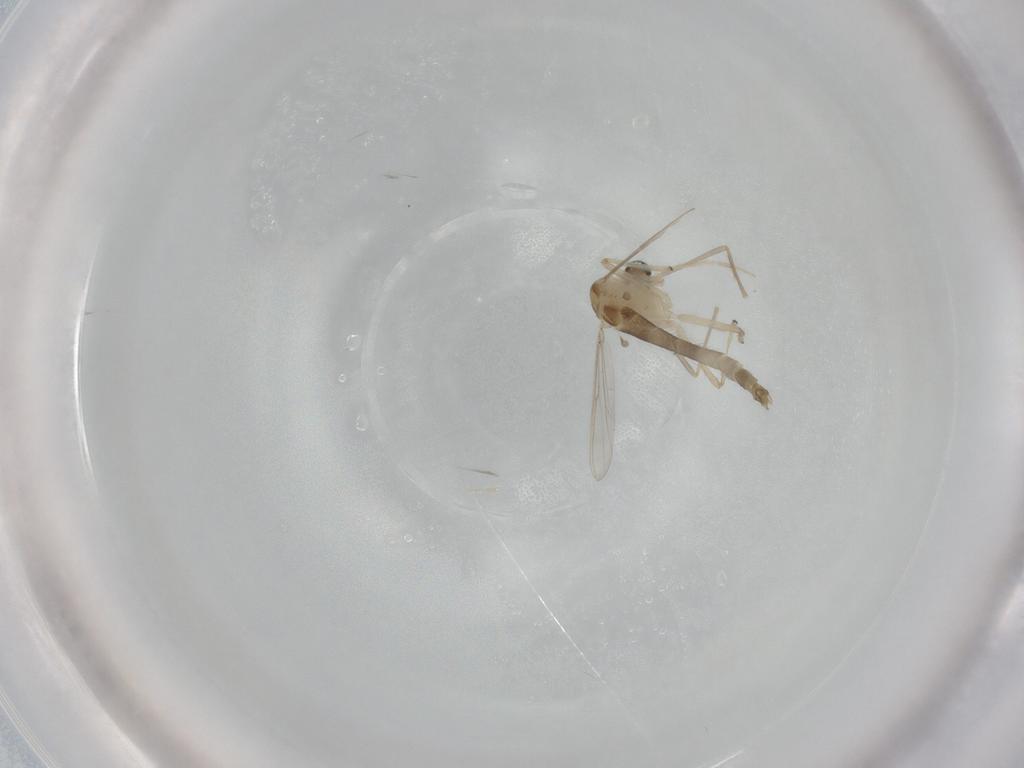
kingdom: Animalia
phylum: Arthropoda
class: Insecta
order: Diptera
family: Chironomidae
